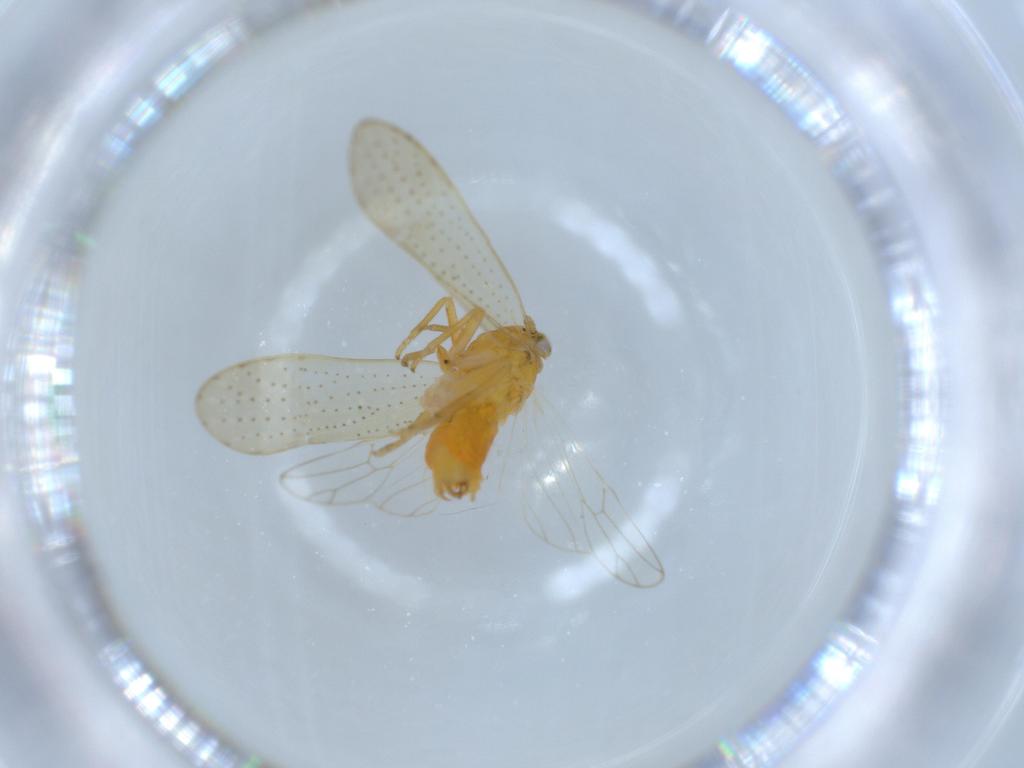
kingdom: Animalia
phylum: Arthropoda
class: Insecta
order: Hemiptera
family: Delphacidae
